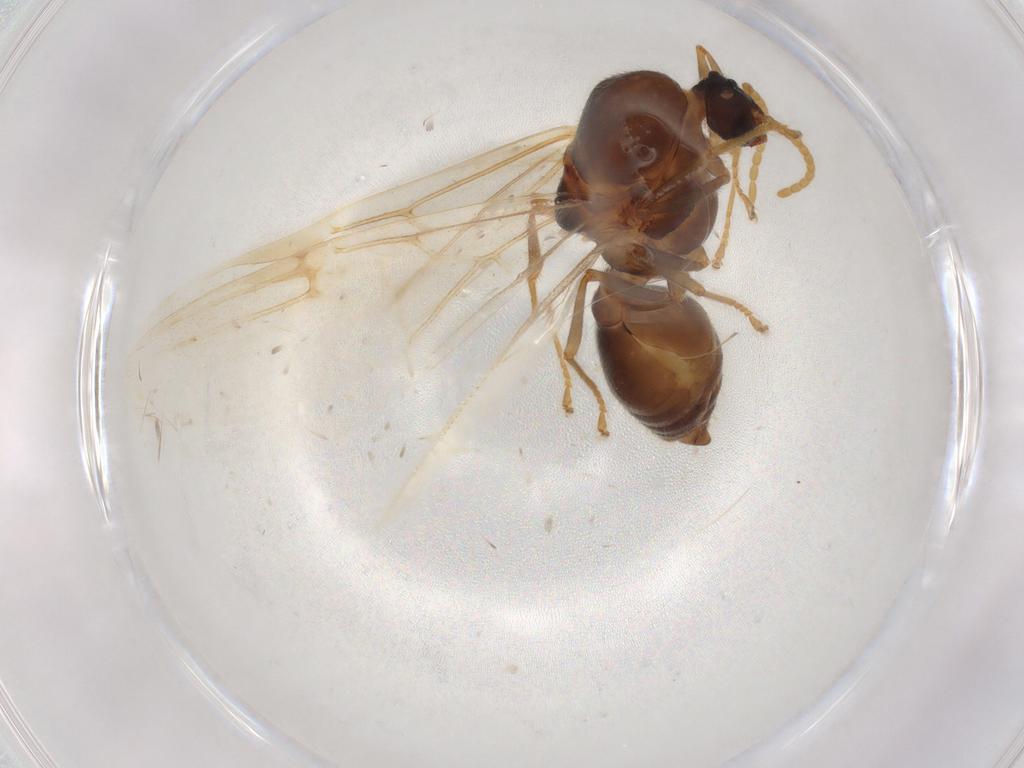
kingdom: Animalia
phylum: Arthropoda
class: Insecta
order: Hymenoptera
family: Formicidae
